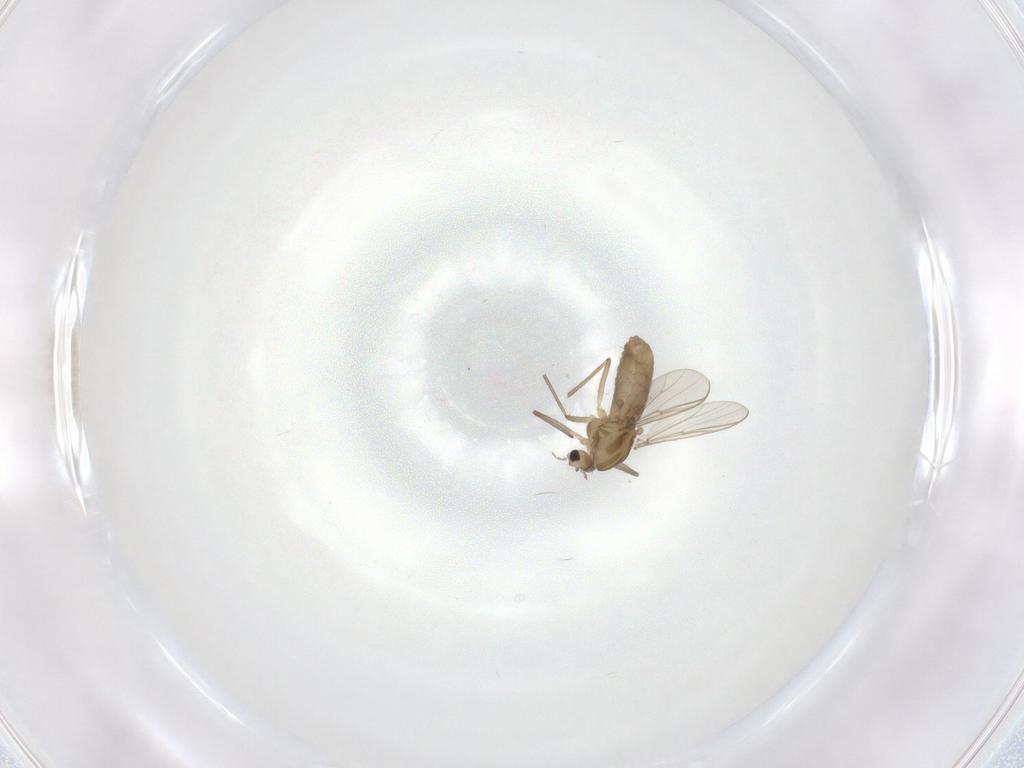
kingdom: Animalia
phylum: Arthropoda
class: Insecta
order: Diptera
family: Chironomidae
